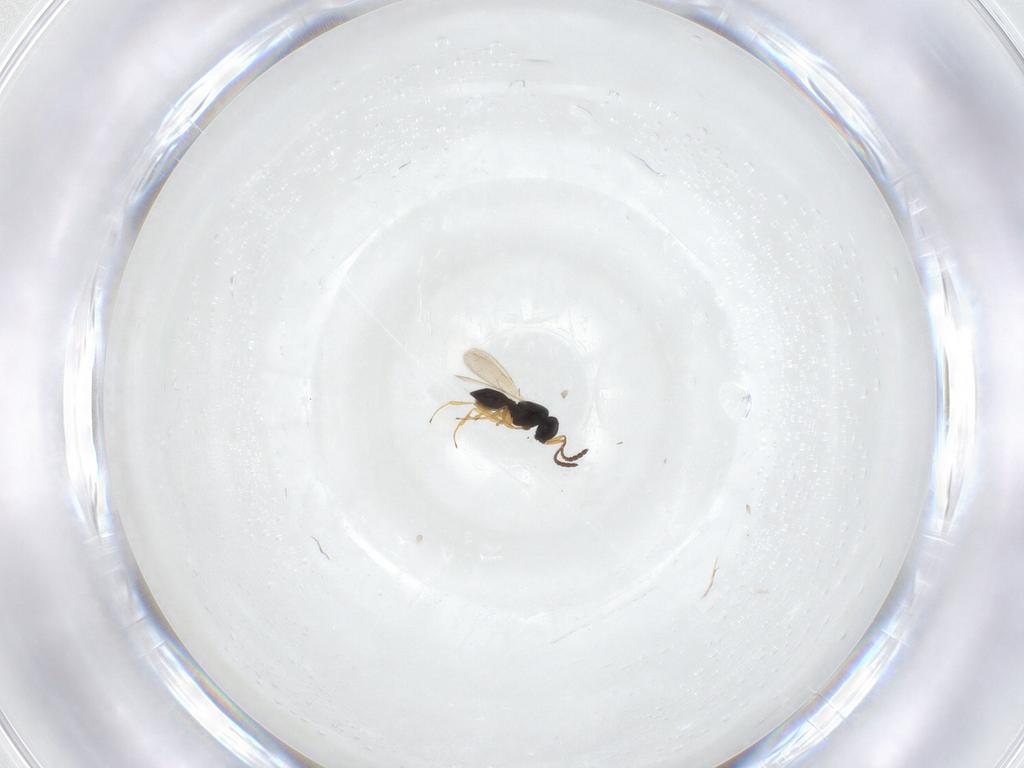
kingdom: Animalia
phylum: Arthropoda
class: Insecta
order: Hymenoptera
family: Scelionidae
